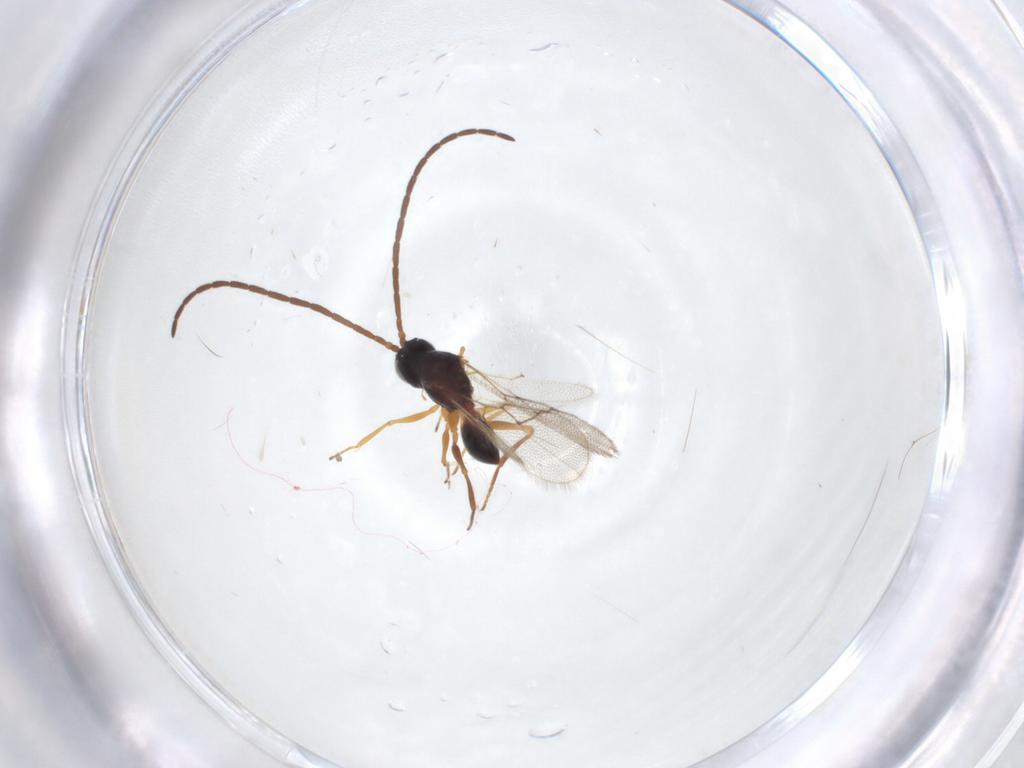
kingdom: Animalia
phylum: Arthropoda
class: Insecta
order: Hymenoptera
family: Figitidae
